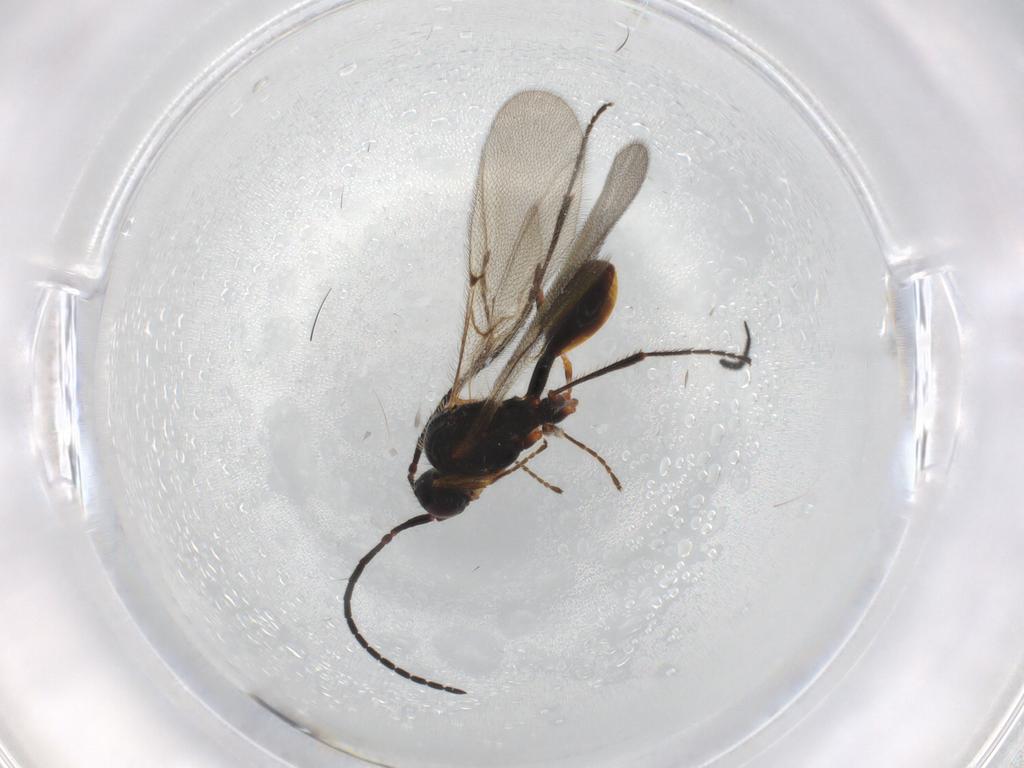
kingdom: Animalia
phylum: Arthropoda
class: Insecta
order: Hymenoptera
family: Diapriidae
